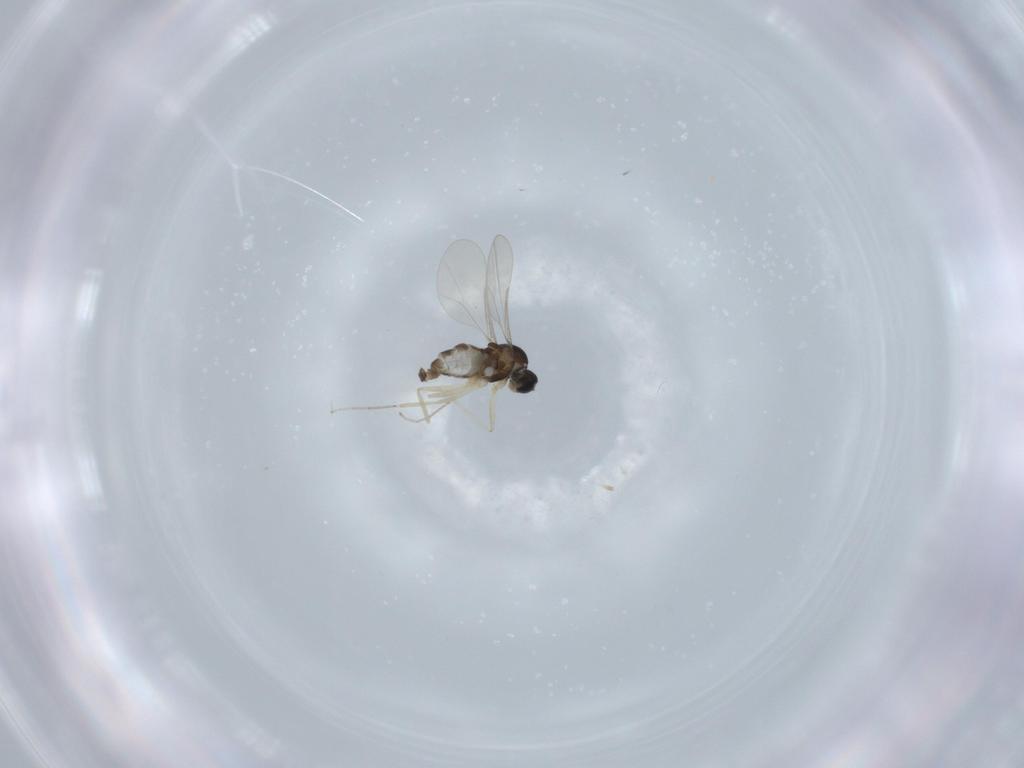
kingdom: Animalia
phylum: Arthropoda
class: Insecta
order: Diptera
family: Cecidomyiidae
